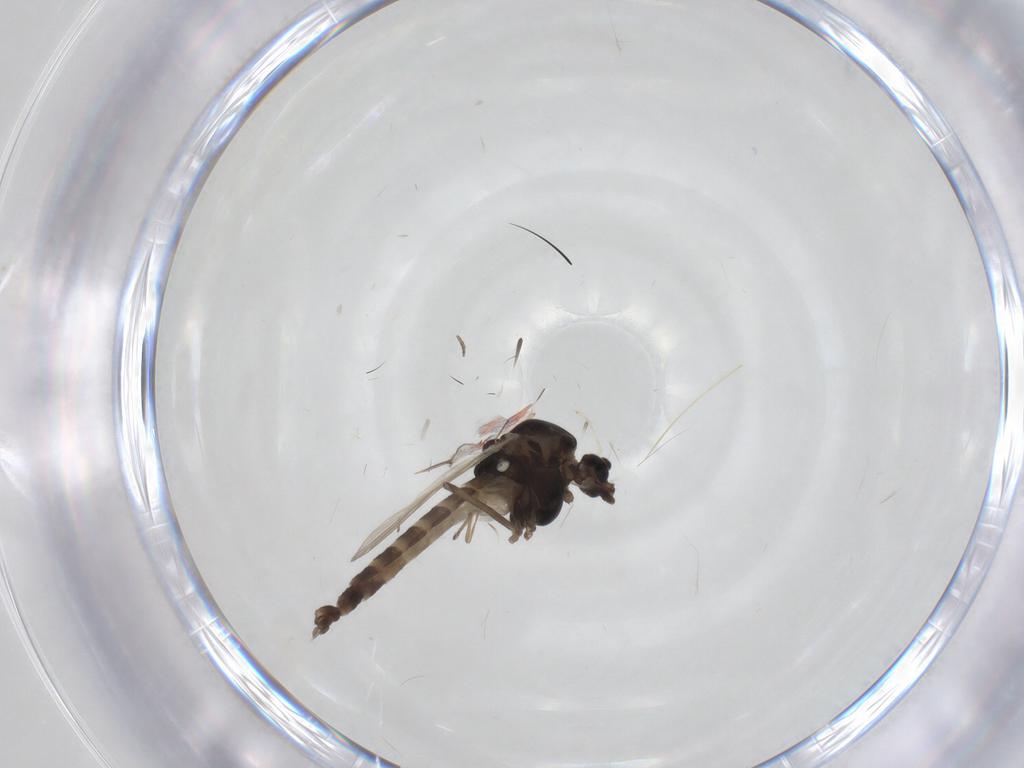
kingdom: Animalia
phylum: Arthropoda
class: Insecta
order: Diptera
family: Chironomidae
